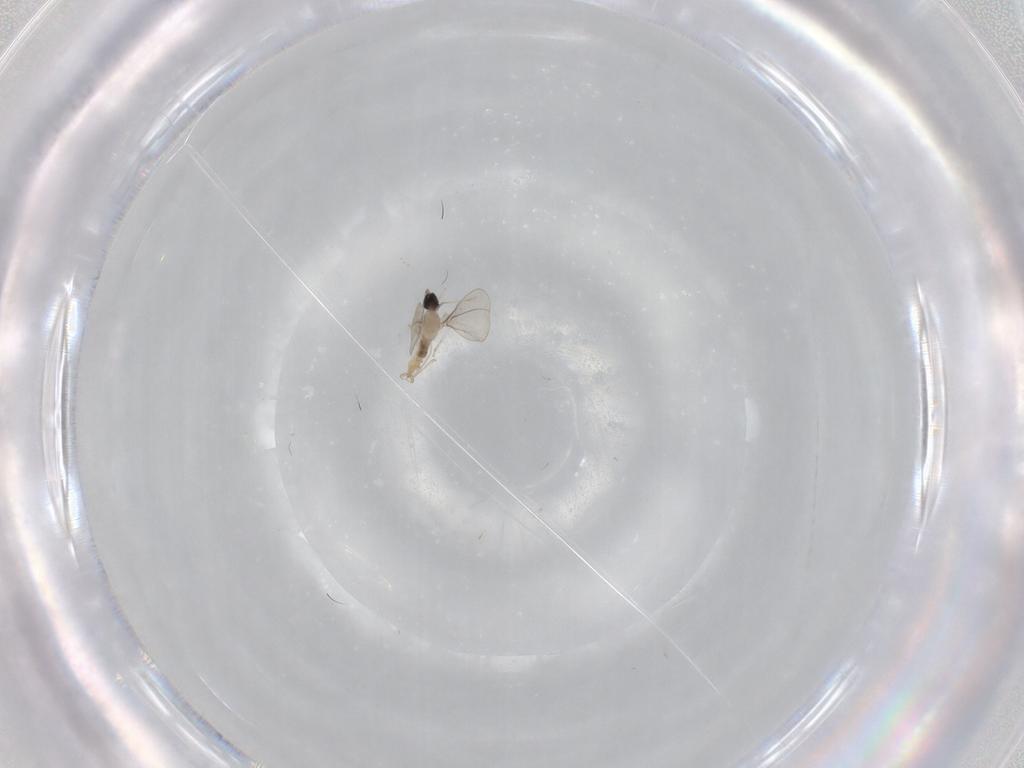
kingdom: Animalia
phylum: Arthropoda
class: Insecta
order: Diptera
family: Cecidomyiidae
